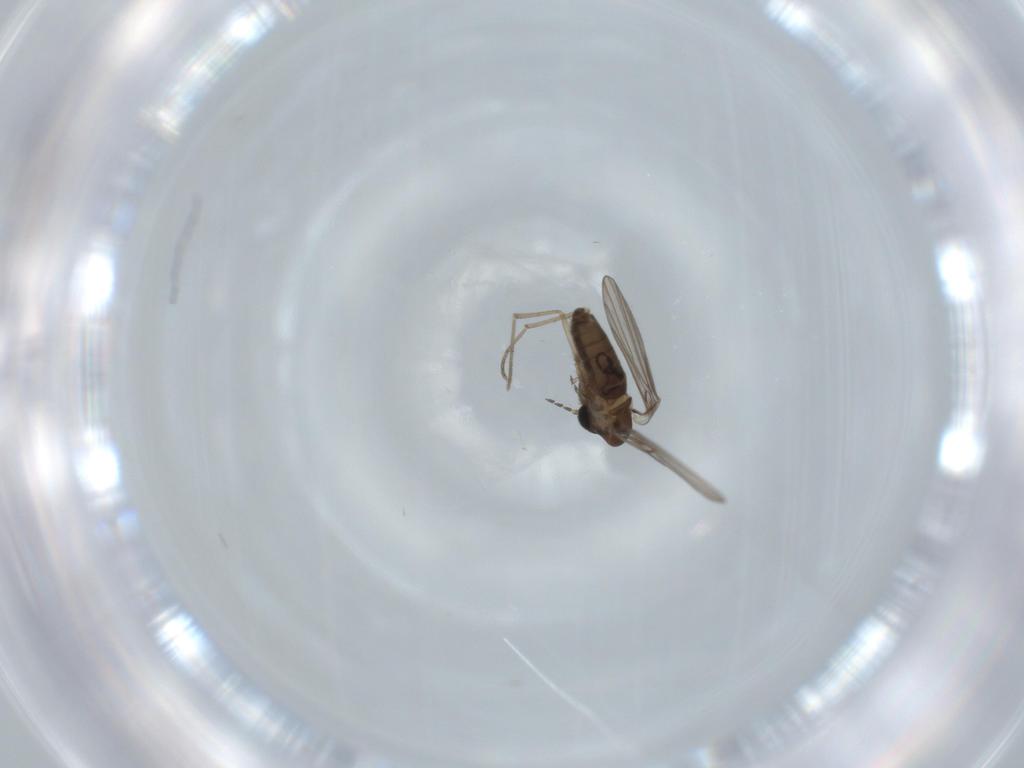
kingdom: Animalia
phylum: Arthropoda
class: Insecta
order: Diptera
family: Psychodidae
